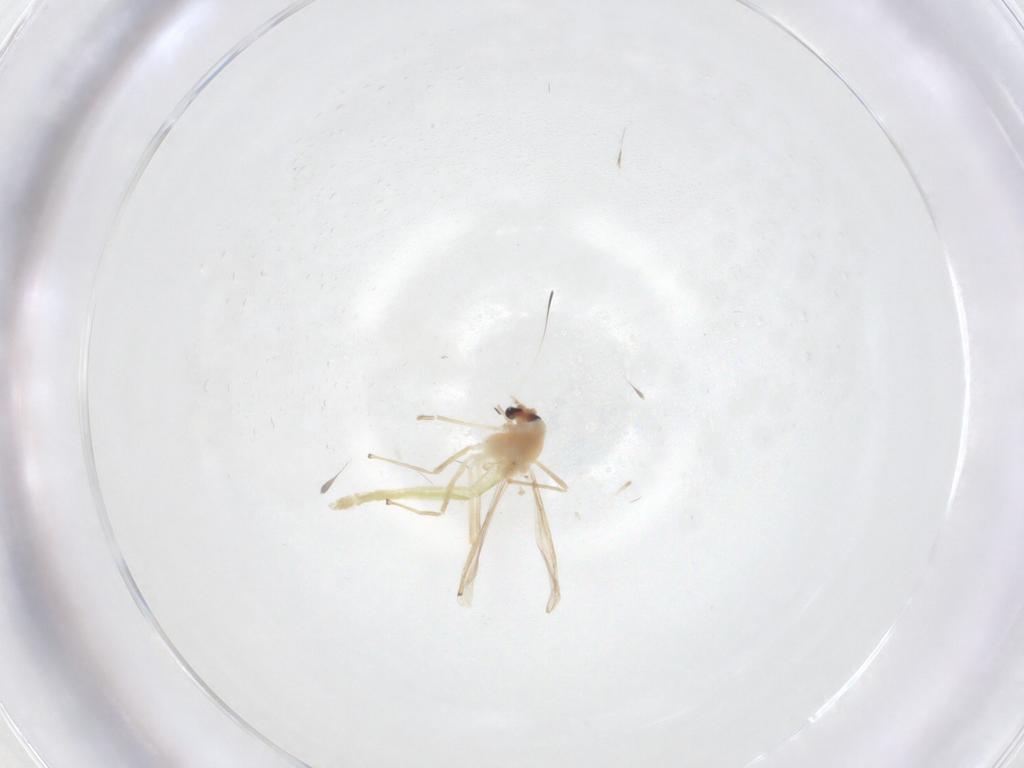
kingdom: Animalia
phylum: Arthropoda
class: Insecta
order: Diptera
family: Chironomidae
